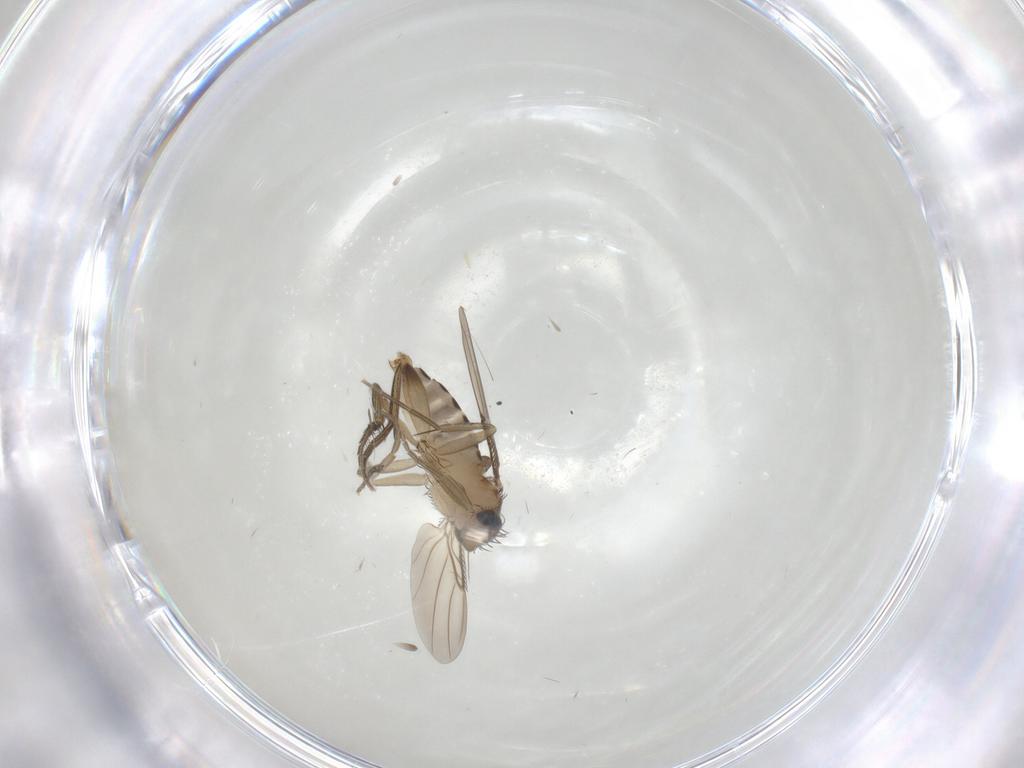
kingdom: Animalia
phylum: Arthropoda
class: Insecta
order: Diptera
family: Phoridae
